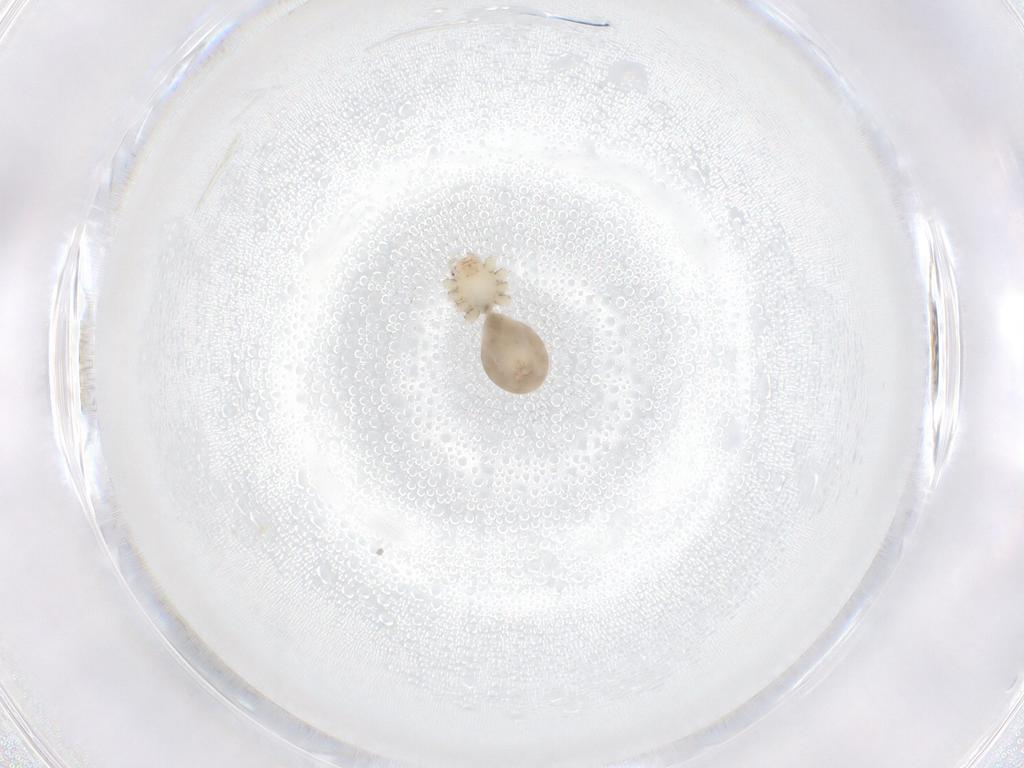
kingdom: Animalia
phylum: Arthropoda
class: Arachnida
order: Araneae
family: Pholcidae
